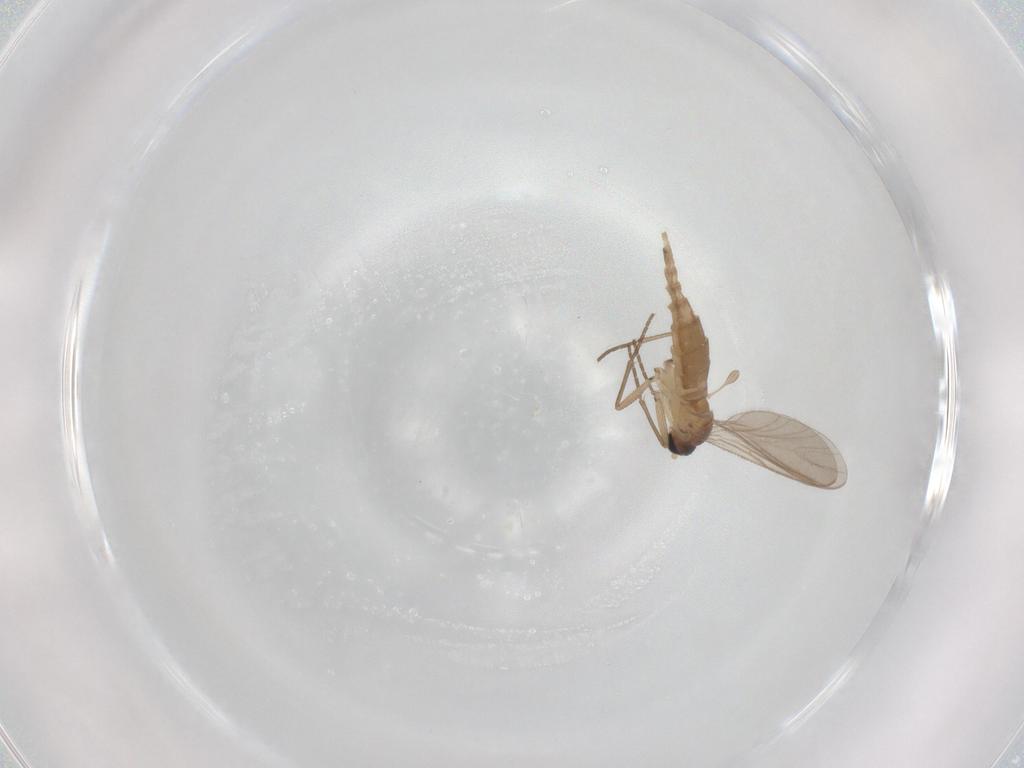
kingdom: Animalia
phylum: Arthropoda
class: Insecta
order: Diptera
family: Sciaridae
